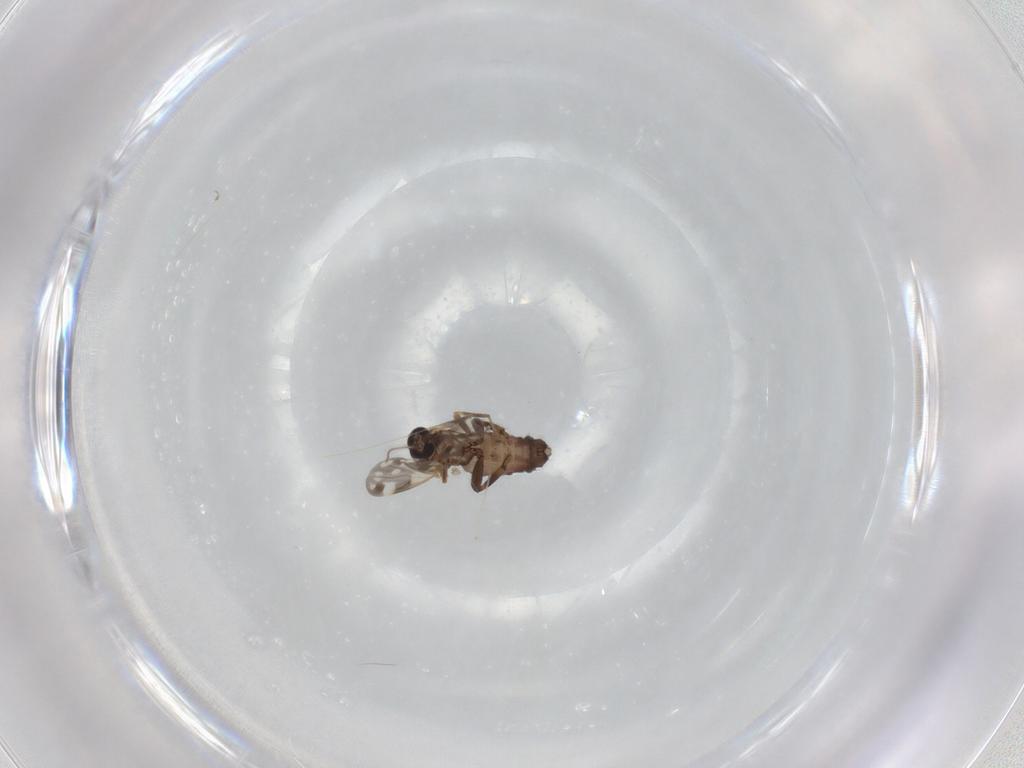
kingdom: Animalia
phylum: Arthropoda
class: Insecta
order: Diptera
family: Ceratopogonidae
